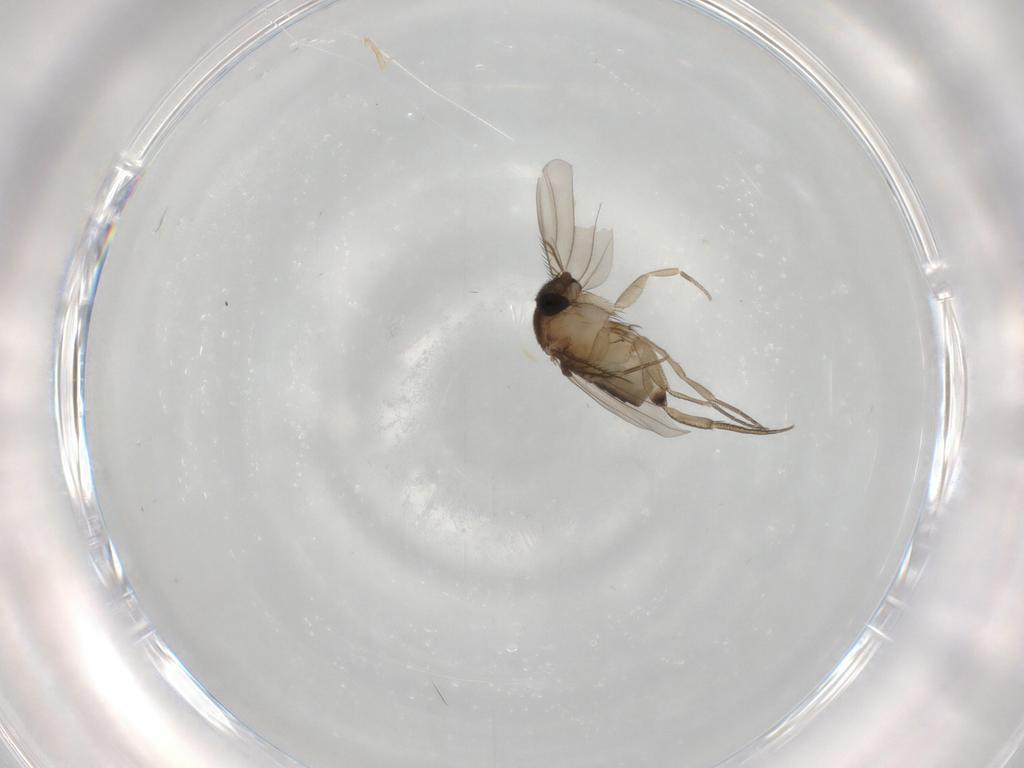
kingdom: Animalia
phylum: Arthropoda
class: Insecta
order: Diptera
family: Phoridae
